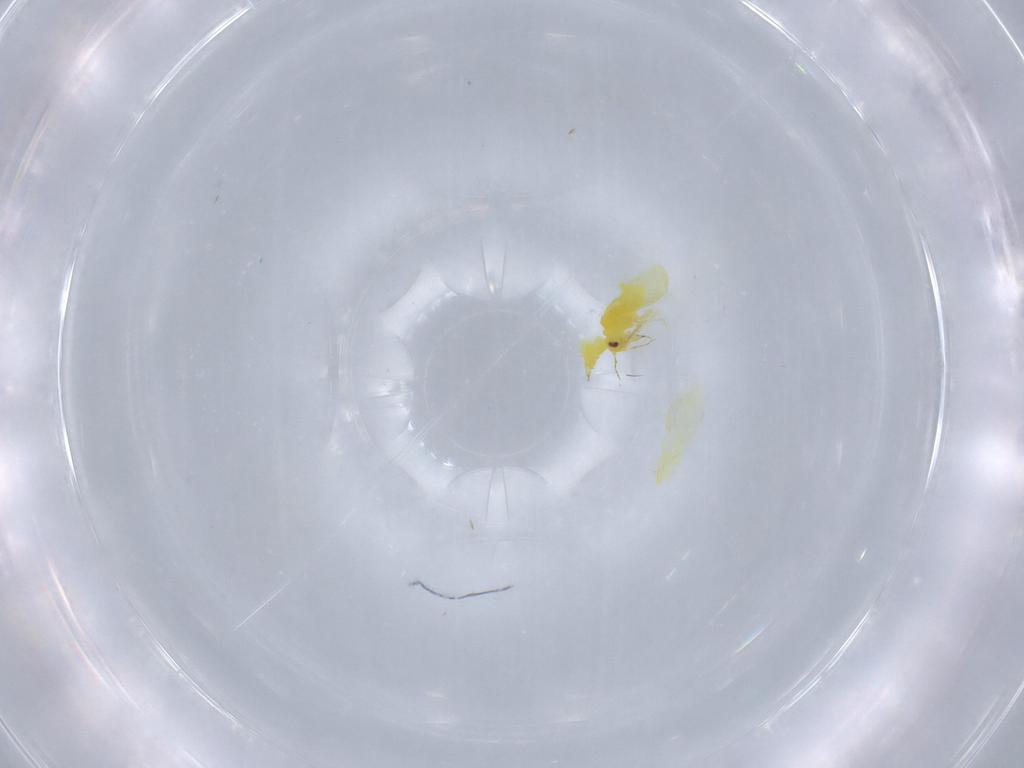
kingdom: Animalia
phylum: Arthropoda
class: Insecta
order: Hemiptera
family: Aleyrodidae
